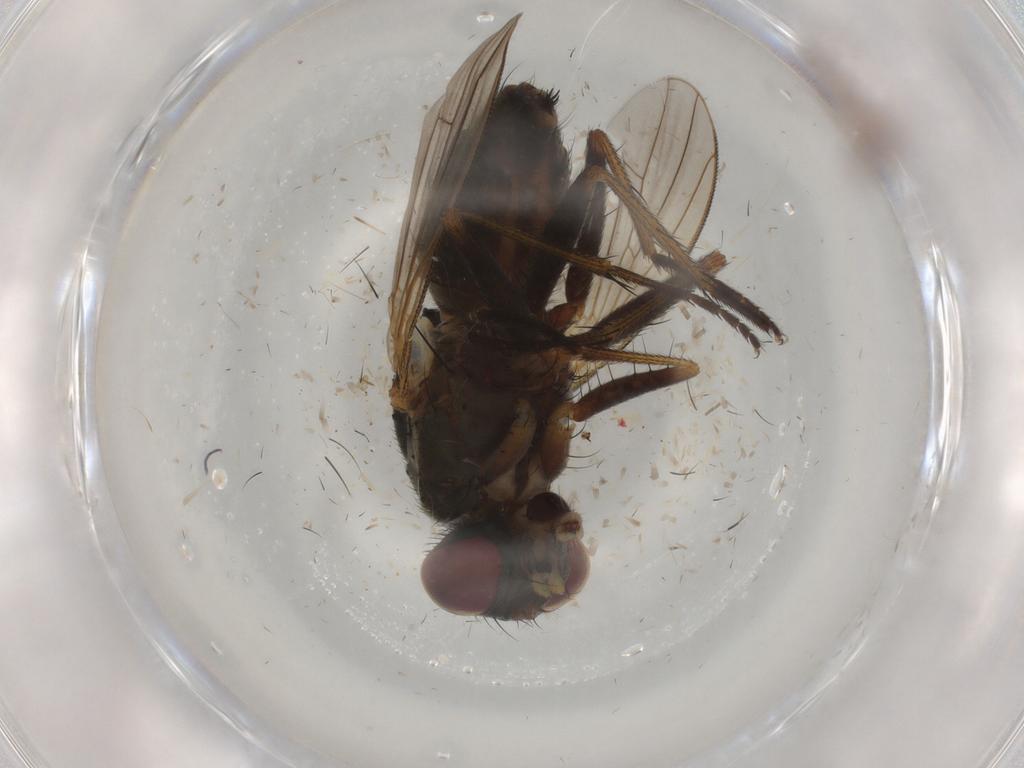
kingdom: Animalia
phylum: Arthropoda
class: Insecta
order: Diptera
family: Muscidae
